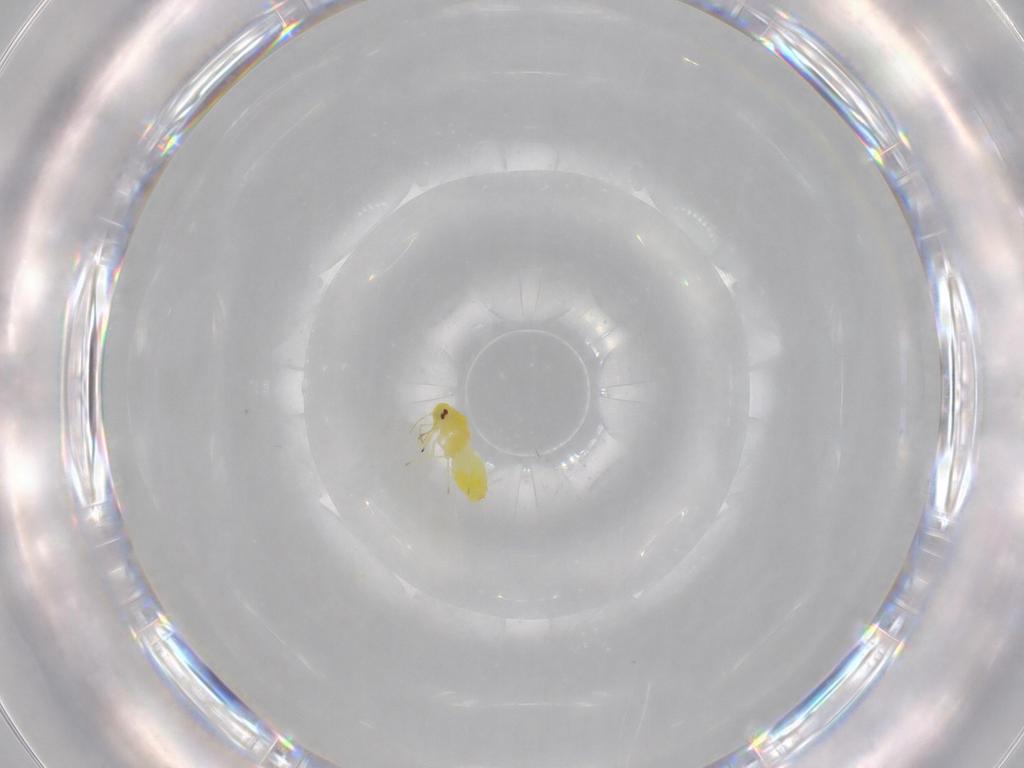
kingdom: Animalia
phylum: Arthropoda
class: Insecta
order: Hemiptera
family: Aleyrodidae
